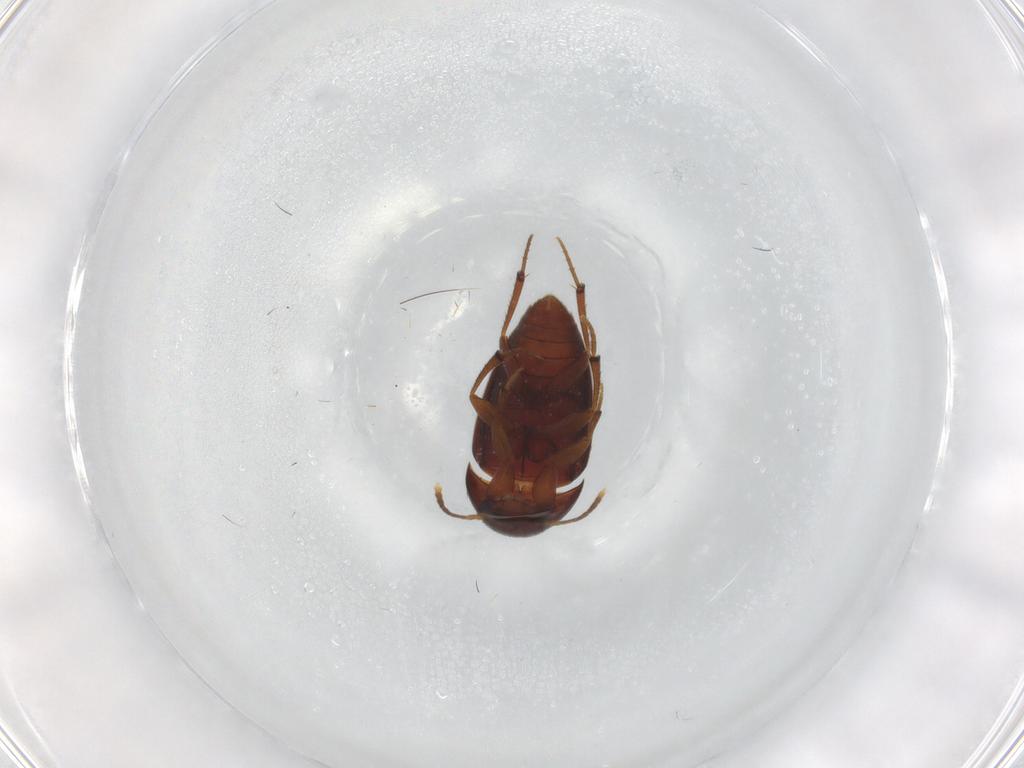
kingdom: Animalia
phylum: Arthropoda
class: Insecta
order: Coleoptera
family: Leiodidae
